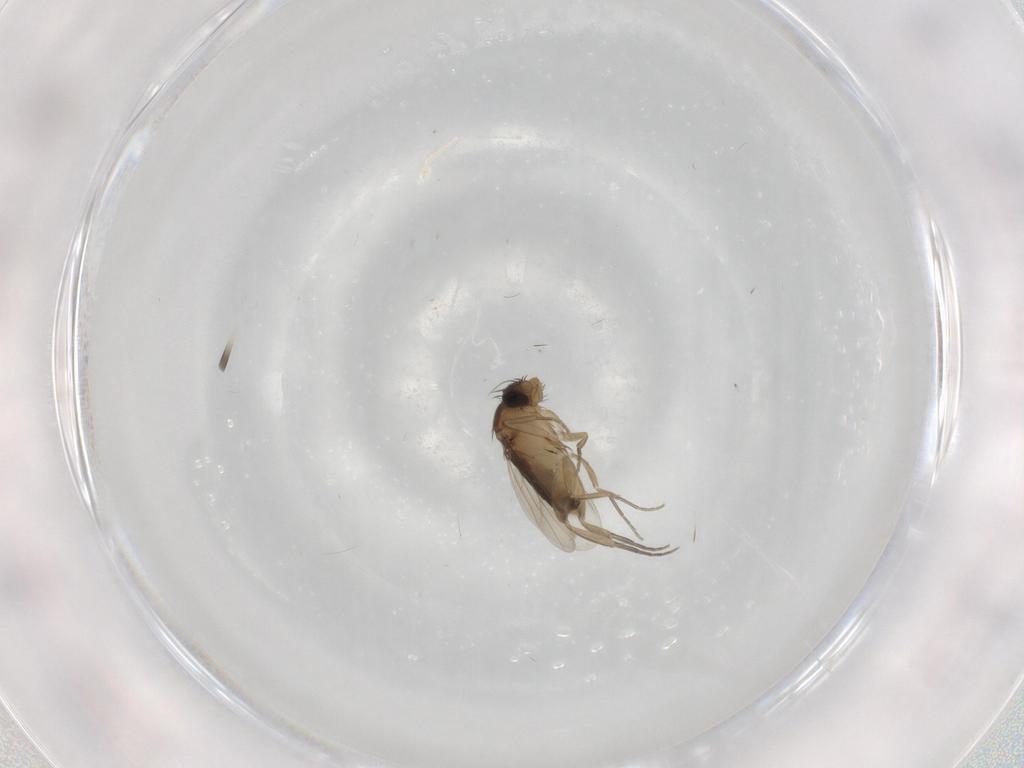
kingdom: Animalia
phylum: Arthropoda
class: Insecta
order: Diptera
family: Phoridae
